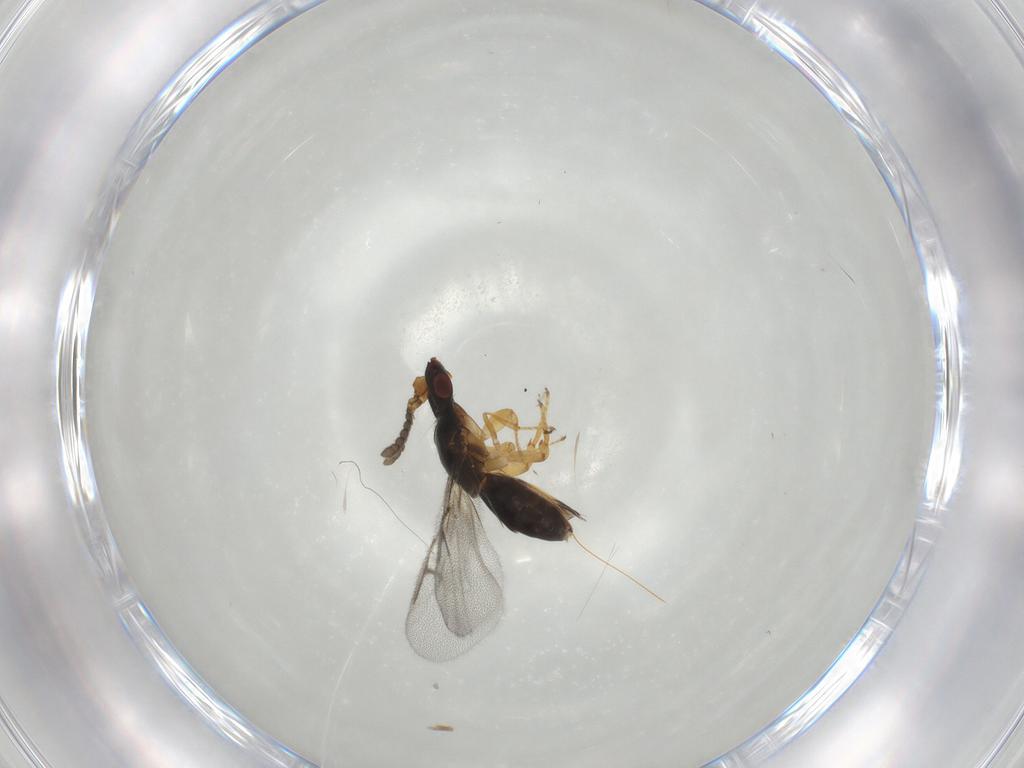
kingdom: Animalia
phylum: Arthropoda
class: Insecta
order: Hymenoptera
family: Agaonidae
